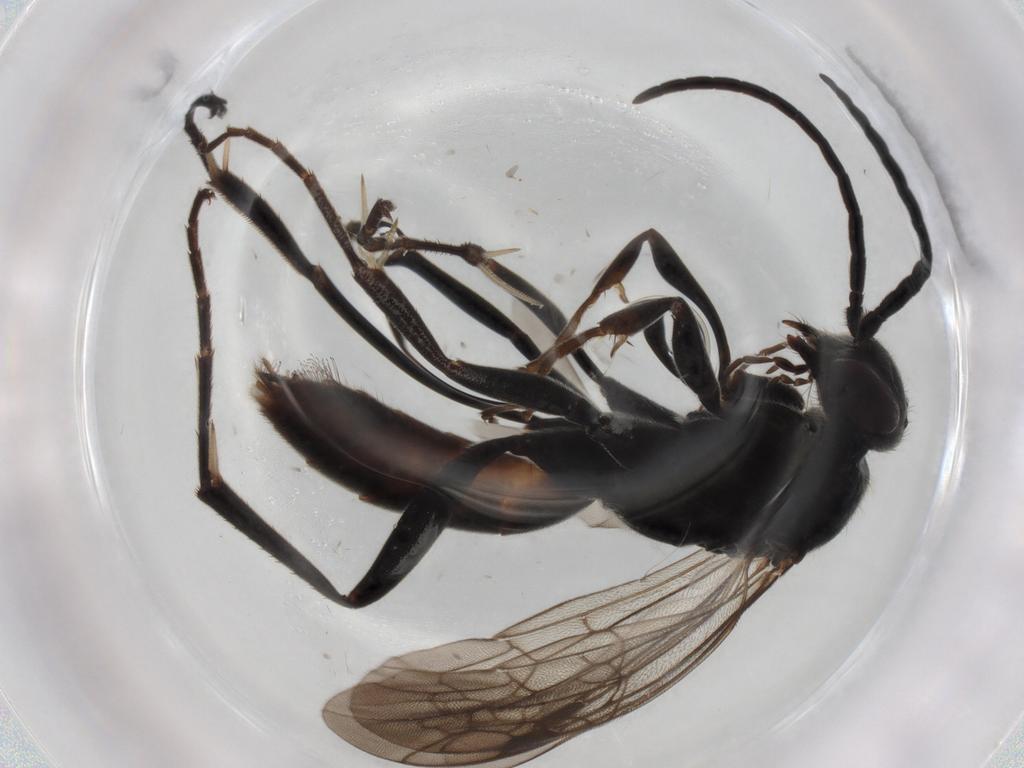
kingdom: Animalia
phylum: Arthropoda
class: Insecta
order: Hymenoptera
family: Pompilidae
